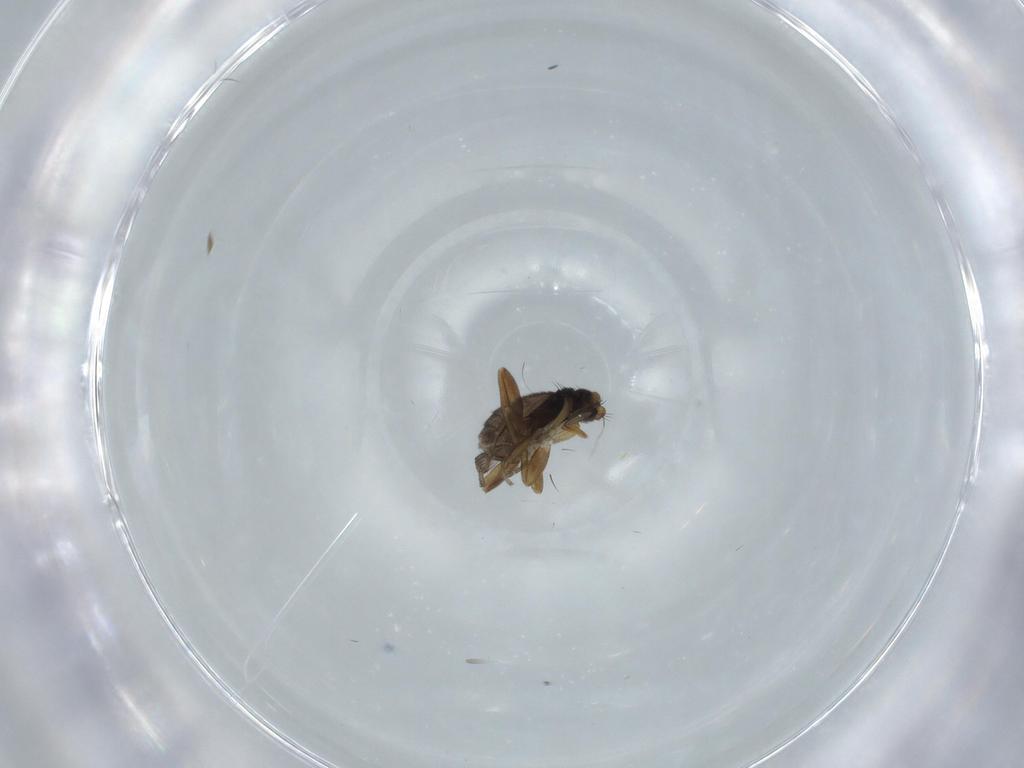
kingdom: Animalia
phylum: Arthropoda
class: Insecta
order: Diptera
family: Phoridae
